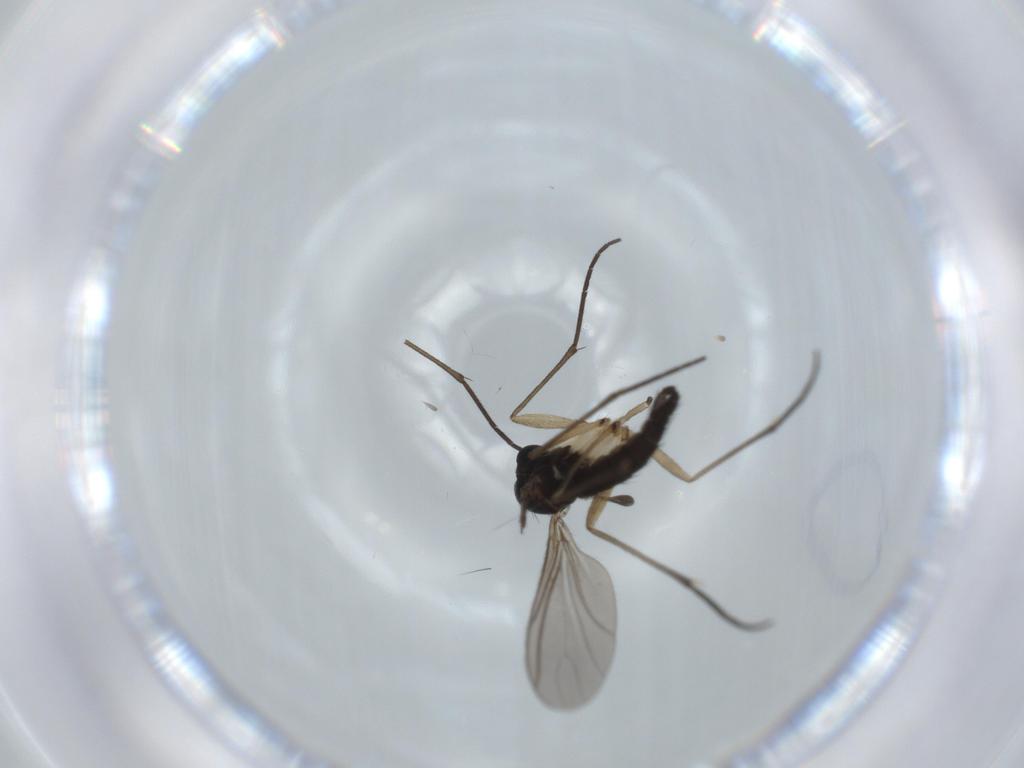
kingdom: Animalia
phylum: Arthropoda
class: Insecta
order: Diptera
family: Sciaridae
